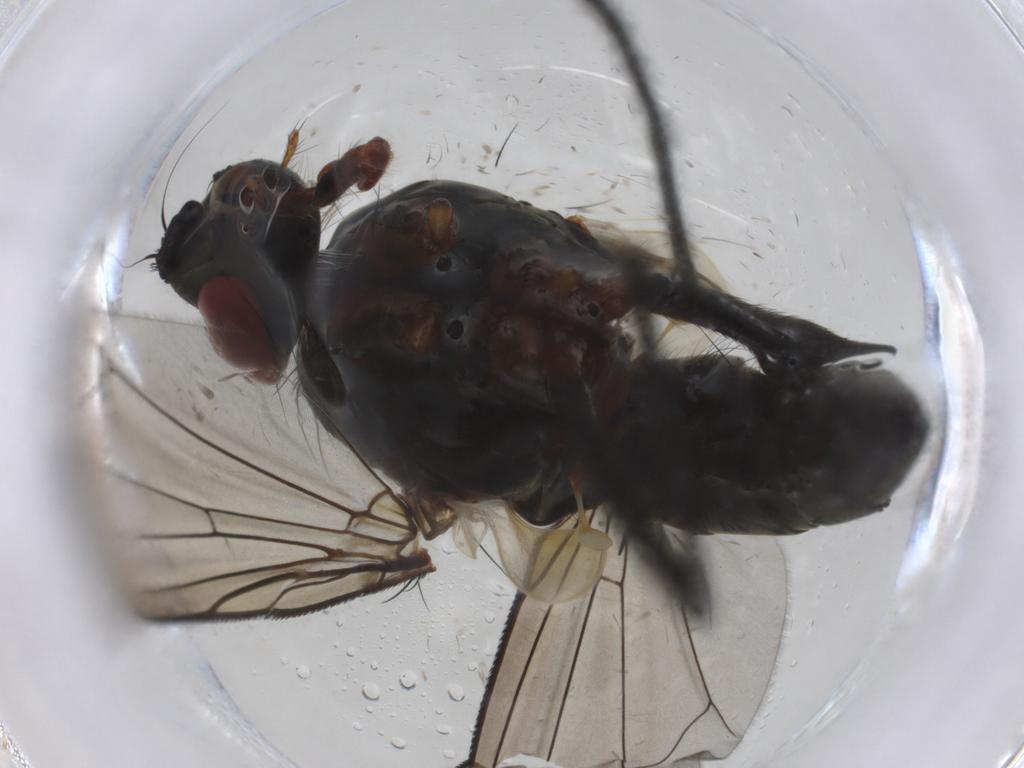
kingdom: Animalia
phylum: Arthropoda
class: Insecta
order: Diptera
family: Tachinidae
